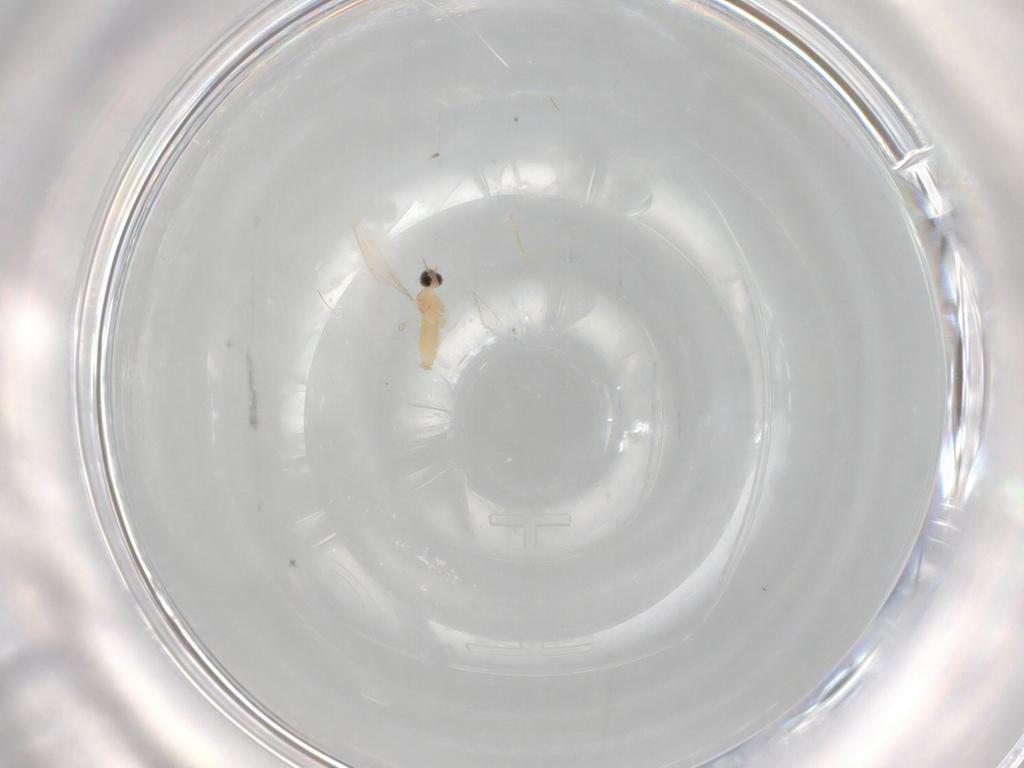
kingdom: Animalia
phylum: Arthropoda
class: Insecta
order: Diptera
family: Cecidomyiidae
